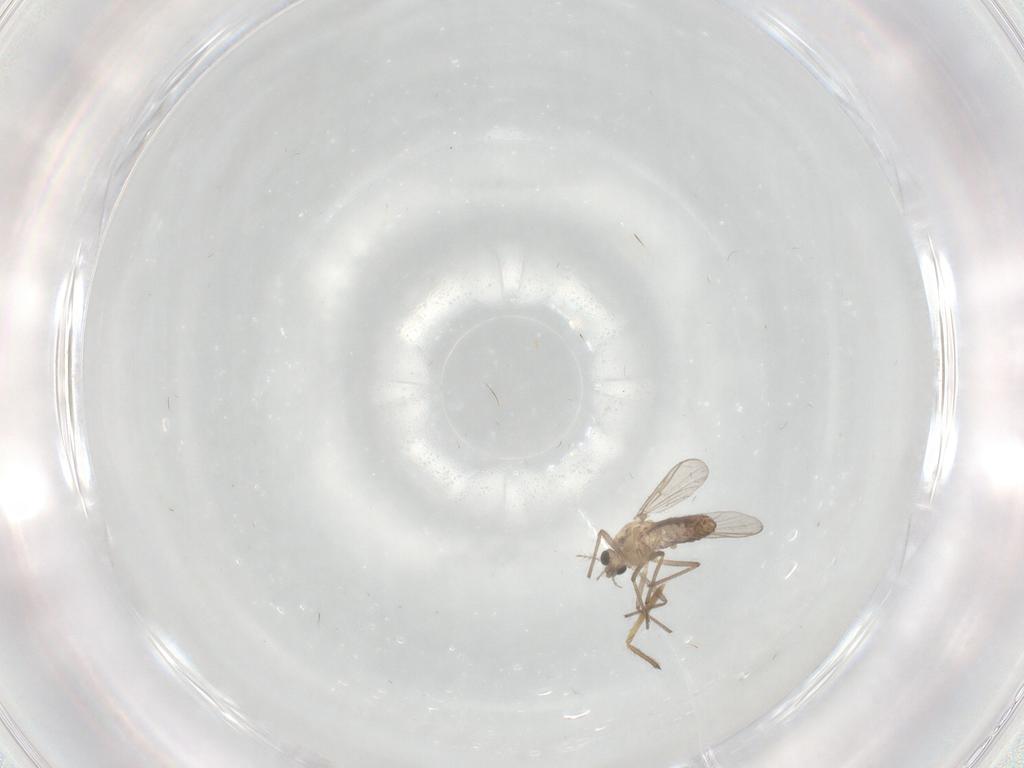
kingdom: Animalia
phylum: Arthropoda
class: Insecta
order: Diptera
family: Chironomidae
